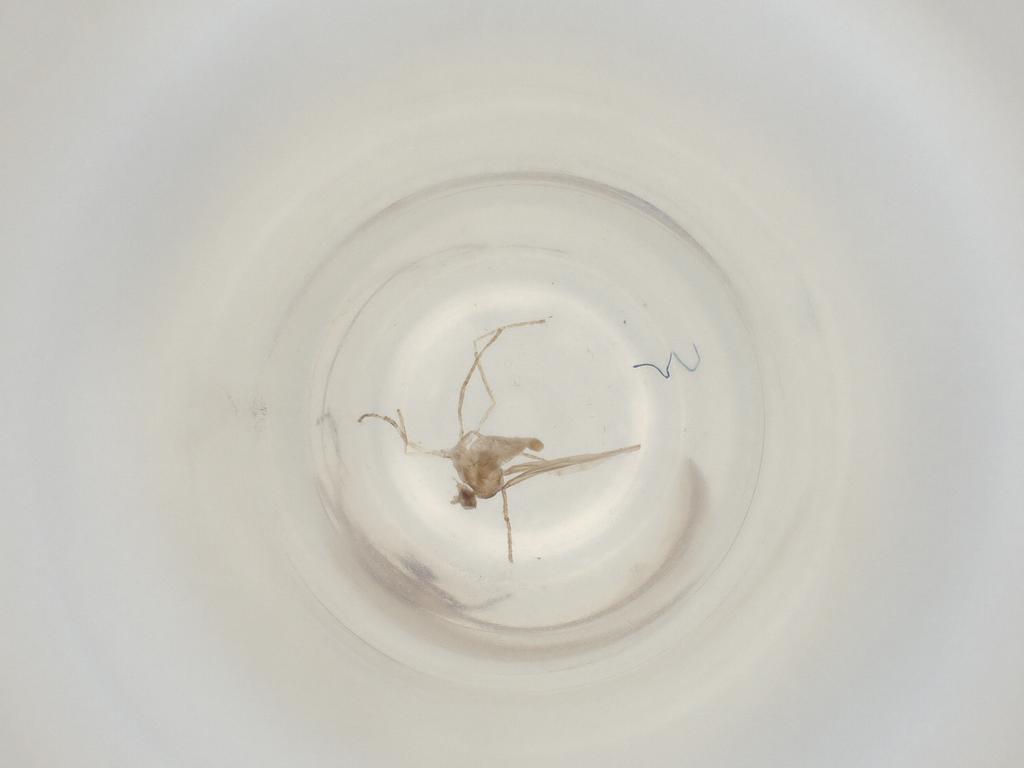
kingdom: Animalia
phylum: Arthropoda
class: Insecta
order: Diptera
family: Cecidomyiidae
